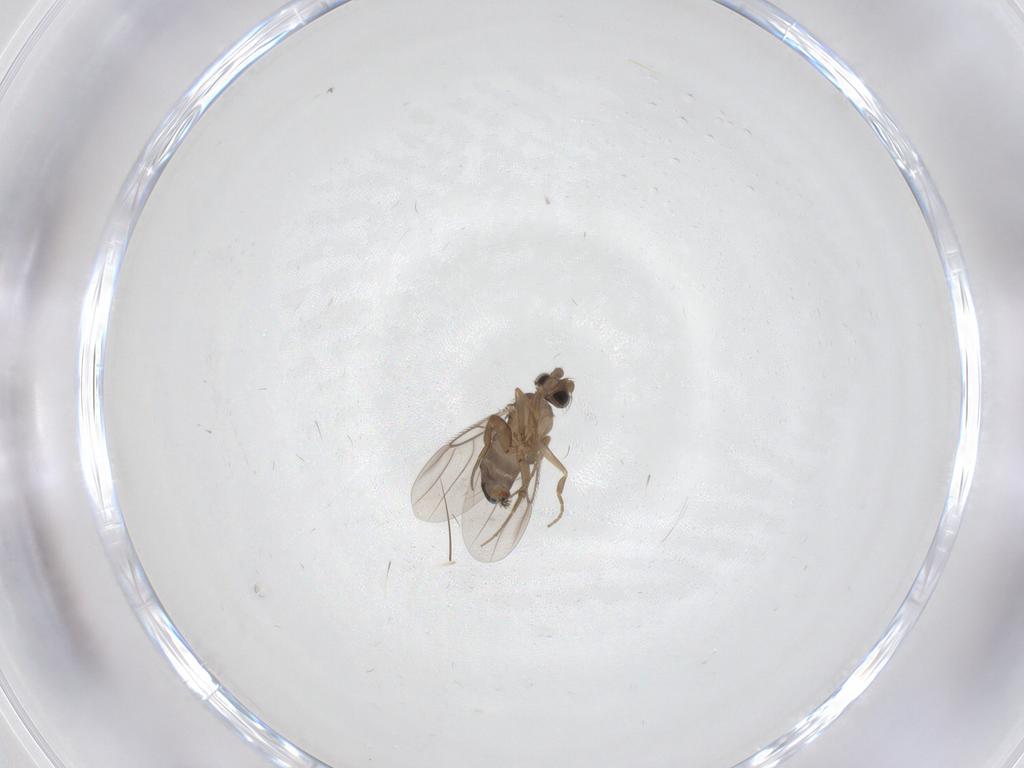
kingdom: Animalia
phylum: Arthropoda
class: Insecta
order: Diptera
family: Phoridae
